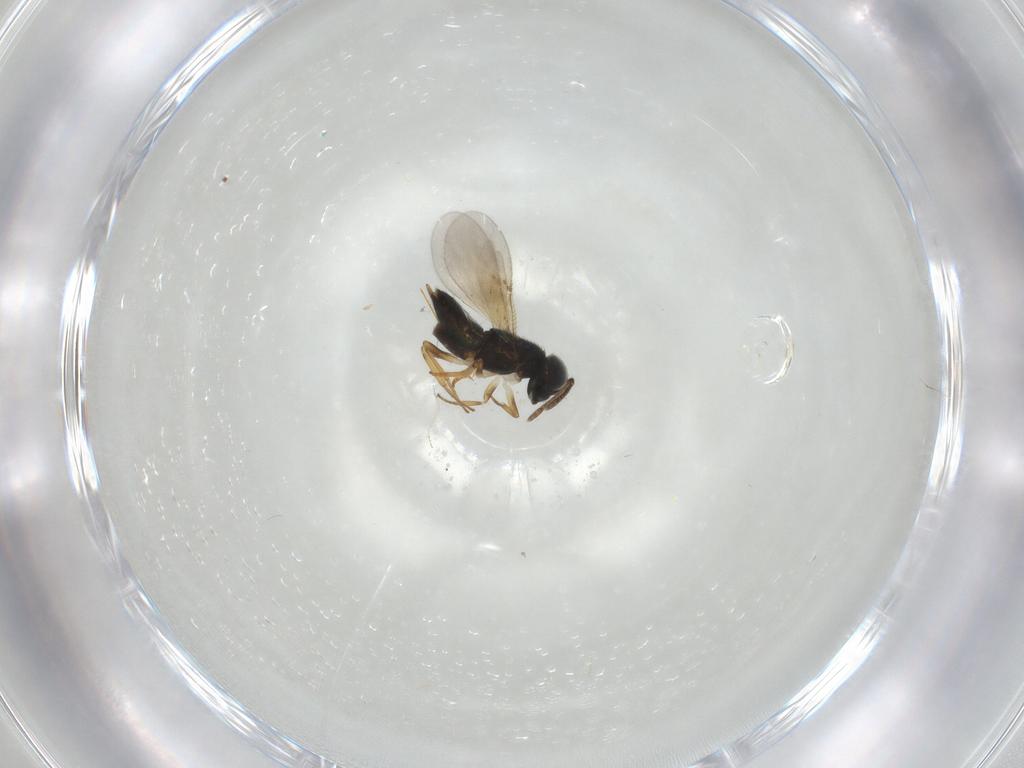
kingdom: Animalia
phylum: Arthropoda
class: Insecta
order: Hymenoptera
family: Encyrtidae
